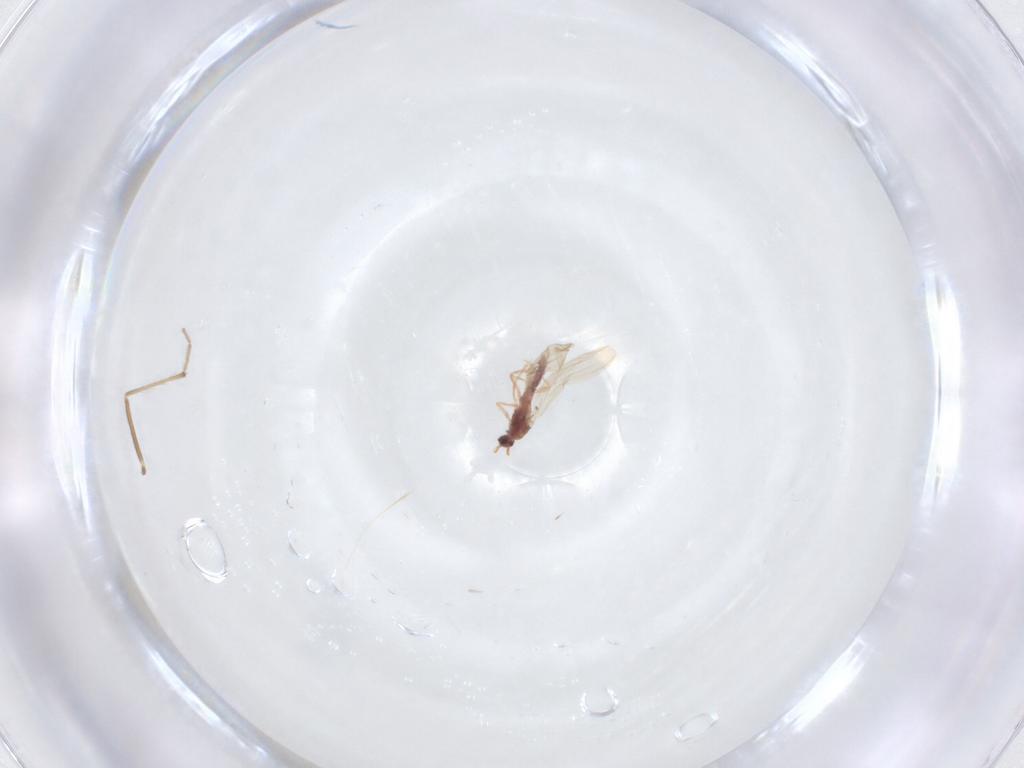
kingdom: Animalia
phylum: Arthropoda
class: Insecta
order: Diptera
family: Chironomidae
